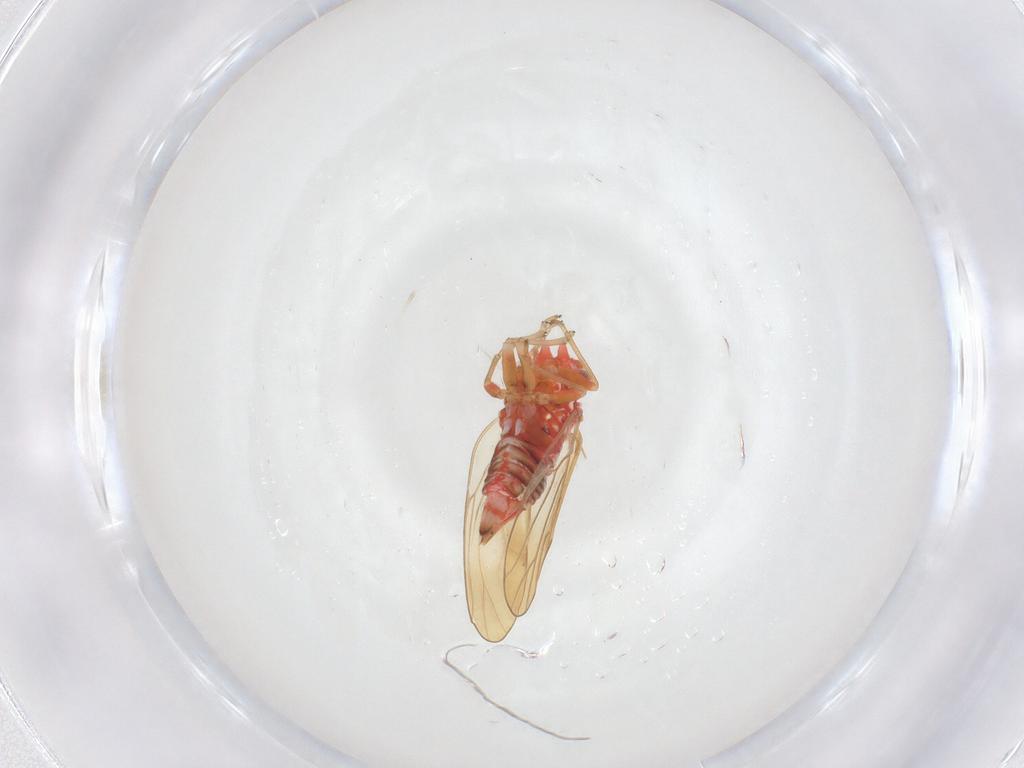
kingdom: Animalia
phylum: Arthropoda
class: Insecta
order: Hemiptera
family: Psyllidae
